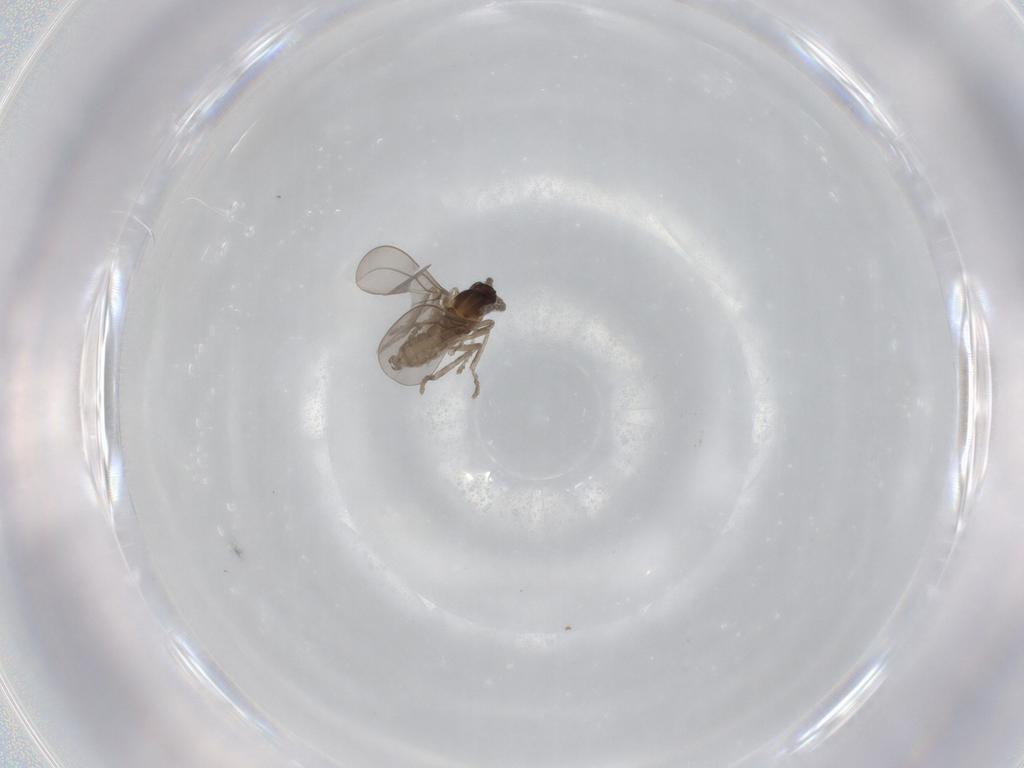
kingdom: Animalia
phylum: Arthropoda
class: Insecta
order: Diptera
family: Cecidomyiidae
